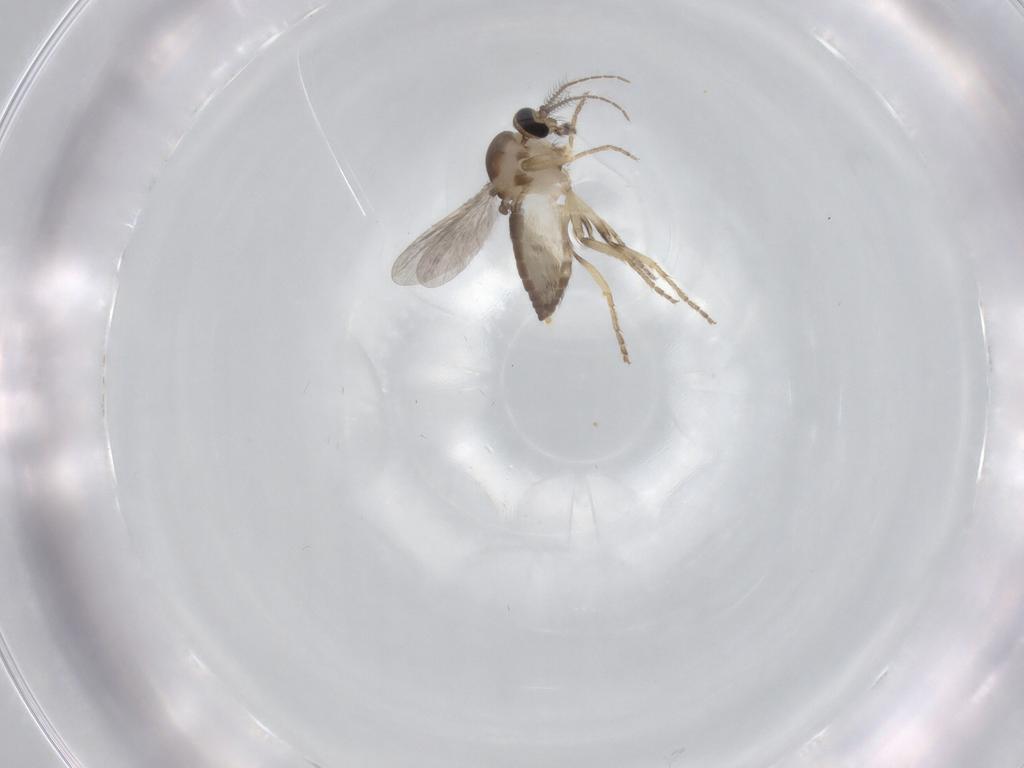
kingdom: Animalia
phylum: Arthropoda
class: Insecta
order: Diptera
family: Ceratopogonidae
